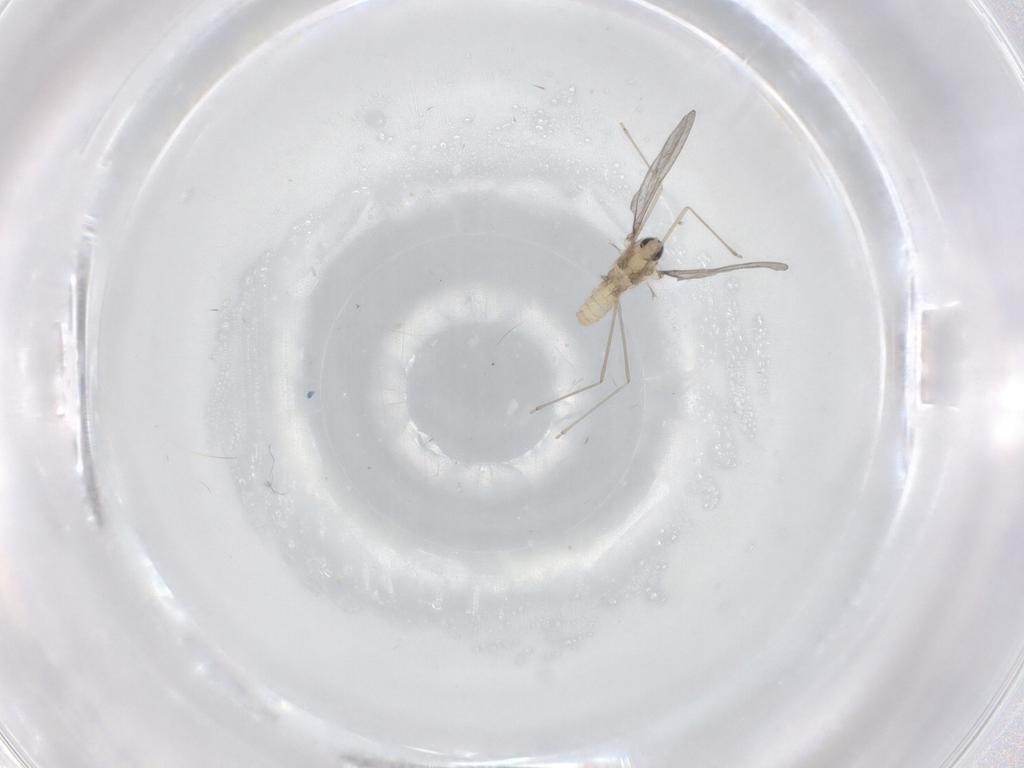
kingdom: Animalia
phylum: Arthropoda
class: Insecta
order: Diptera
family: Cecidomyiidae
